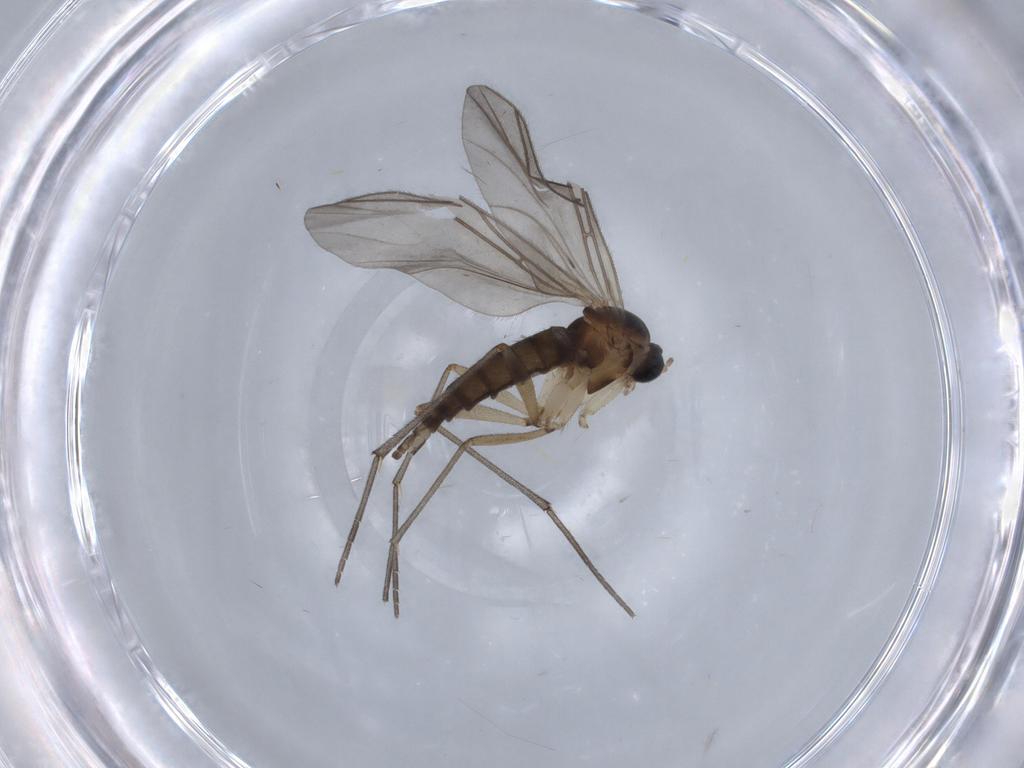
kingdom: Animalia
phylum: Arthropoda
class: Insecta
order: Diptera
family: Sciaridae
